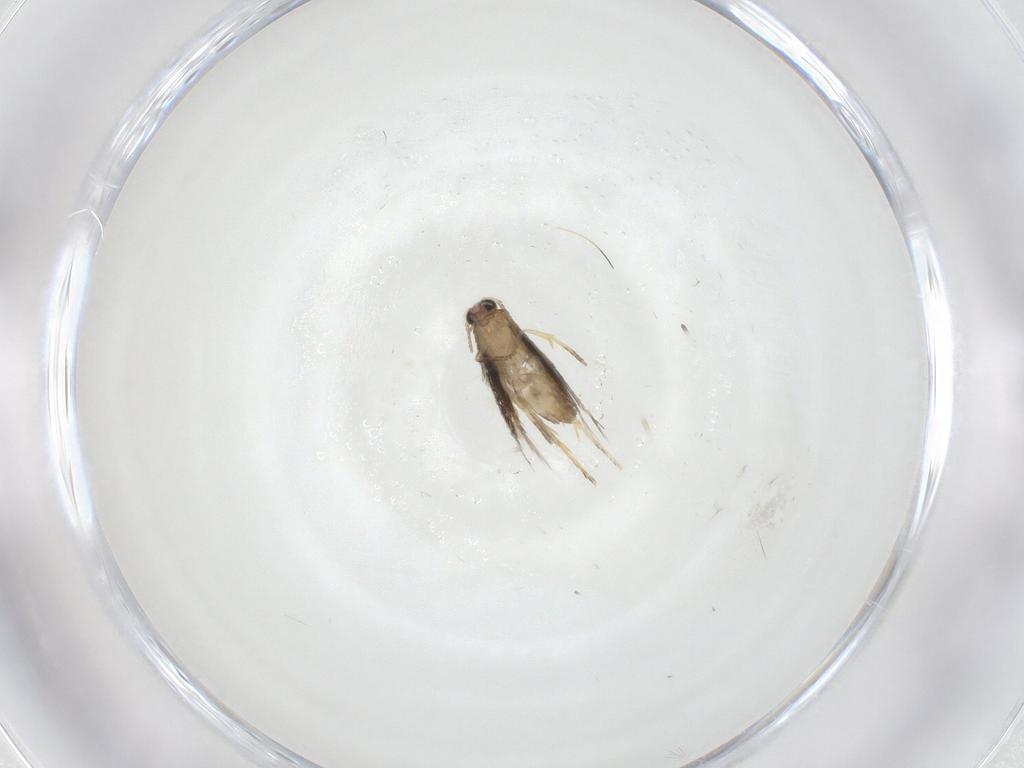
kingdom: Animalia
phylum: Arthropoda
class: Insecta
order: Lepidoptera
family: Nepticulidae
